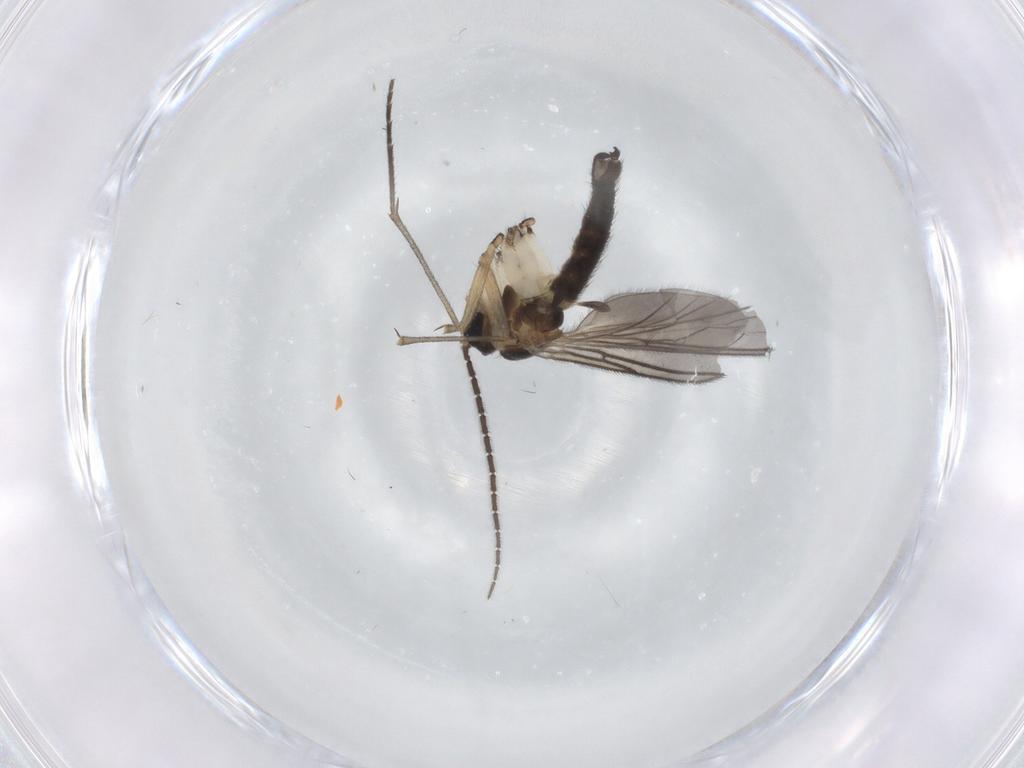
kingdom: Animalia
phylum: Arthropoda
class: Insecta
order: Diptera
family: Sciaridae
